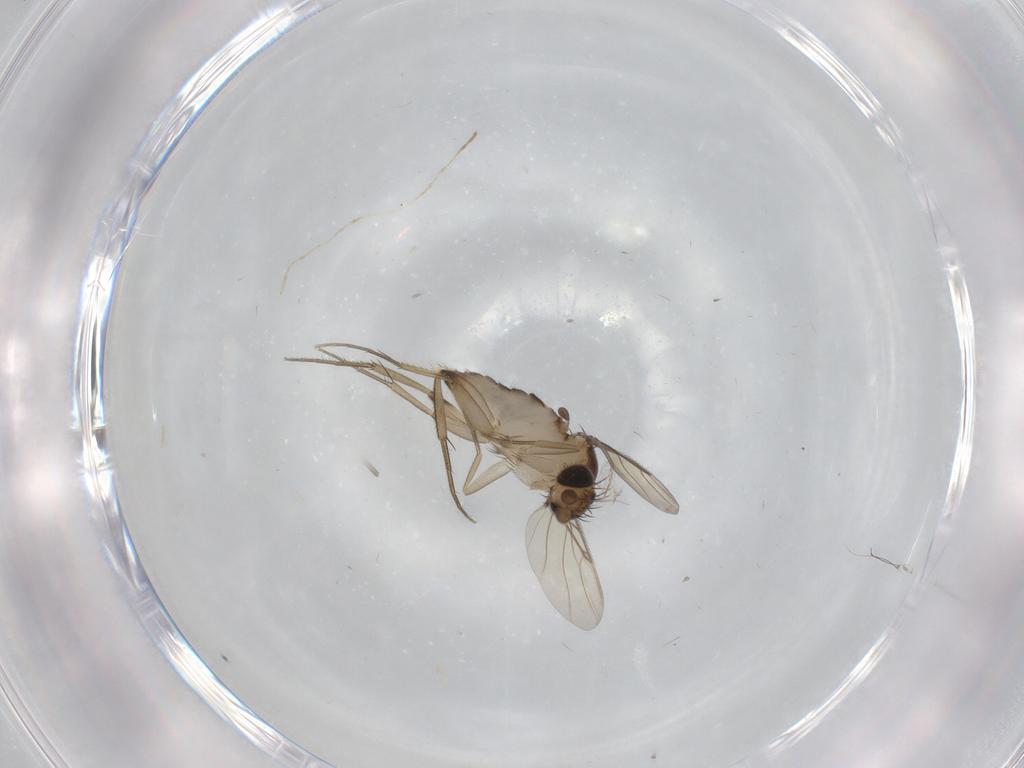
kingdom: Animalia
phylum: Arthropoda
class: Insecta
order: Diptera
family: Phoridae
